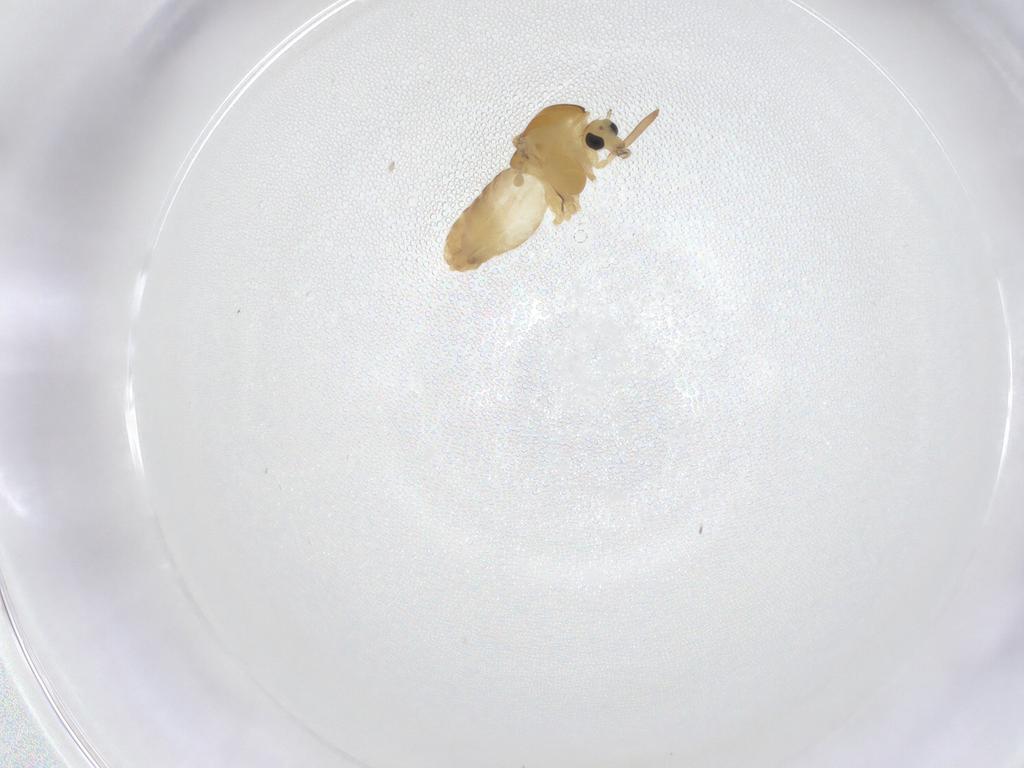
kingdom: Animalia
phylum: Arthropoda
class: Insecta
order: Diptera
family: Chironomidae
